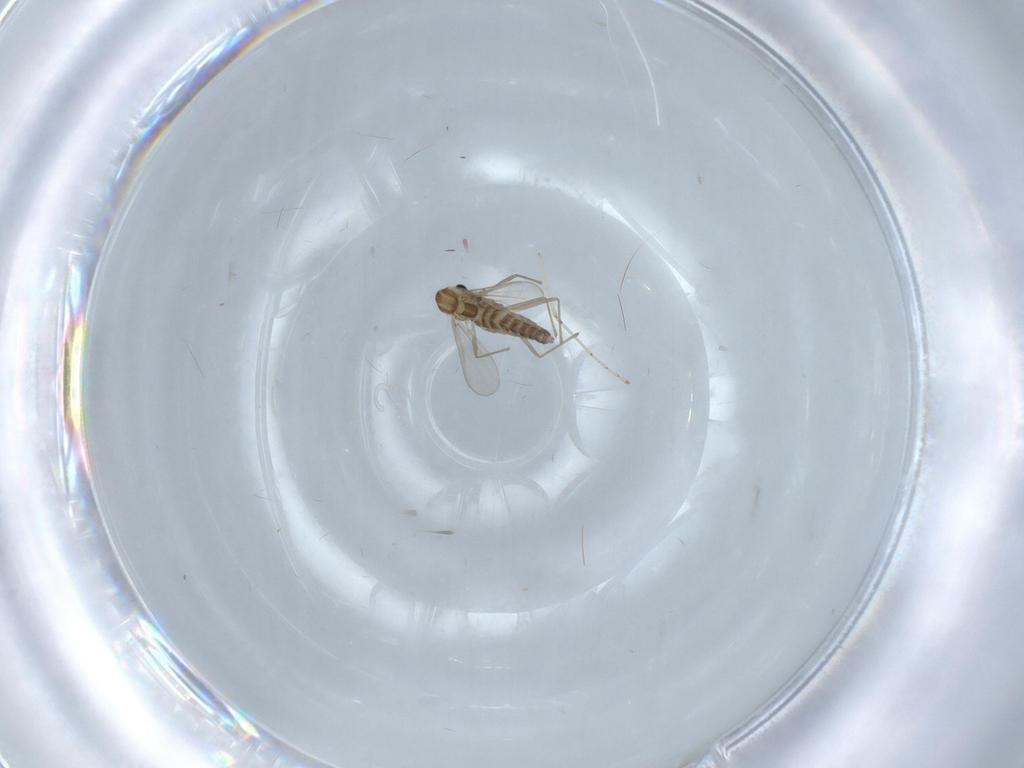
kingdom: Animalia
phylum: Arthropoda
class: Insecta
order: Diptera
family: Chironomidae
